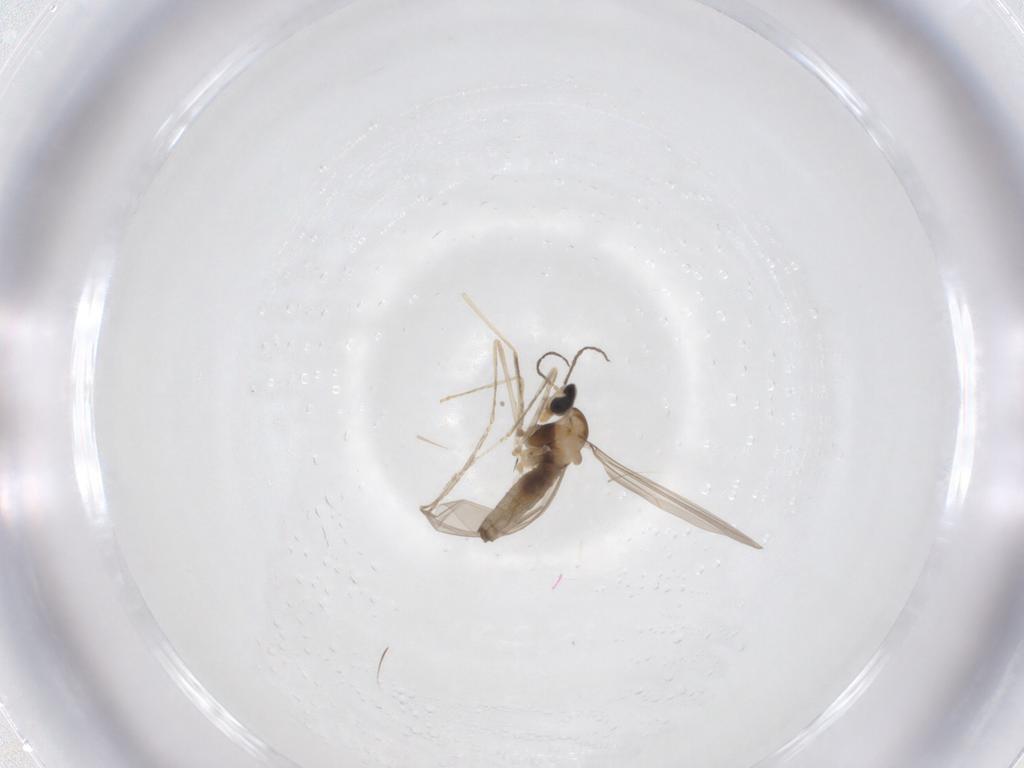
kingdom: Animalia
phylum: Arthropoda
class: Insecta
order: Diptera
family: Cecidomyiidae
